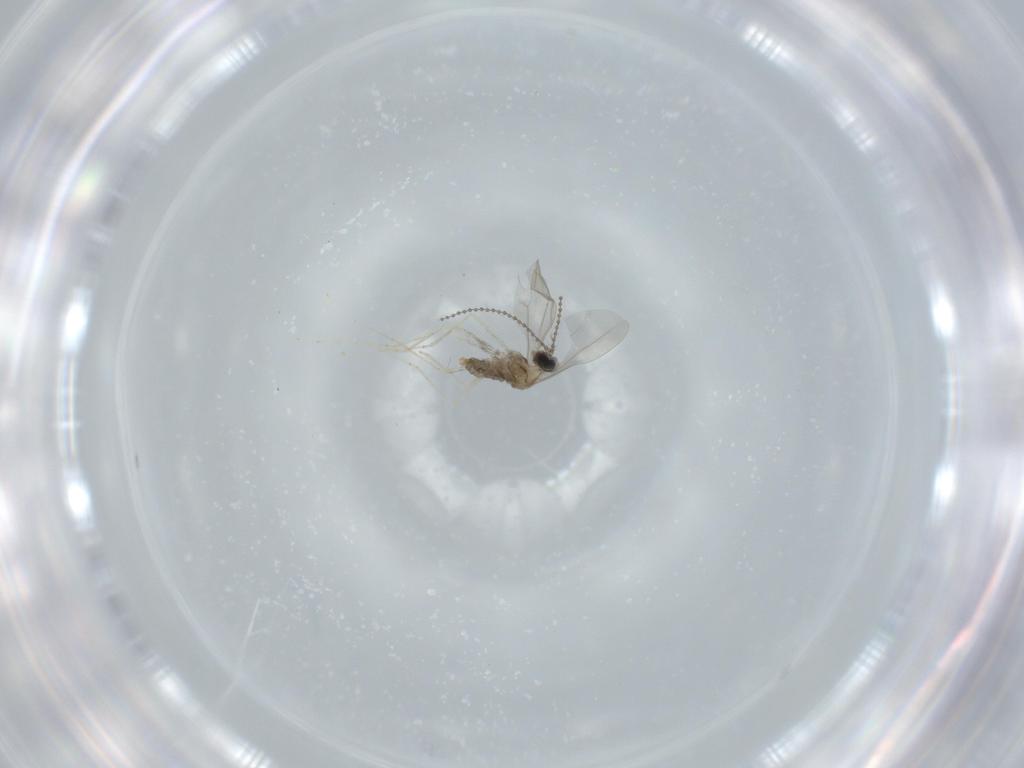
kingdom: Animalia
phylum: Arthropoda
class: Insecta
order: Diptera
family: Cecidomyiidae
